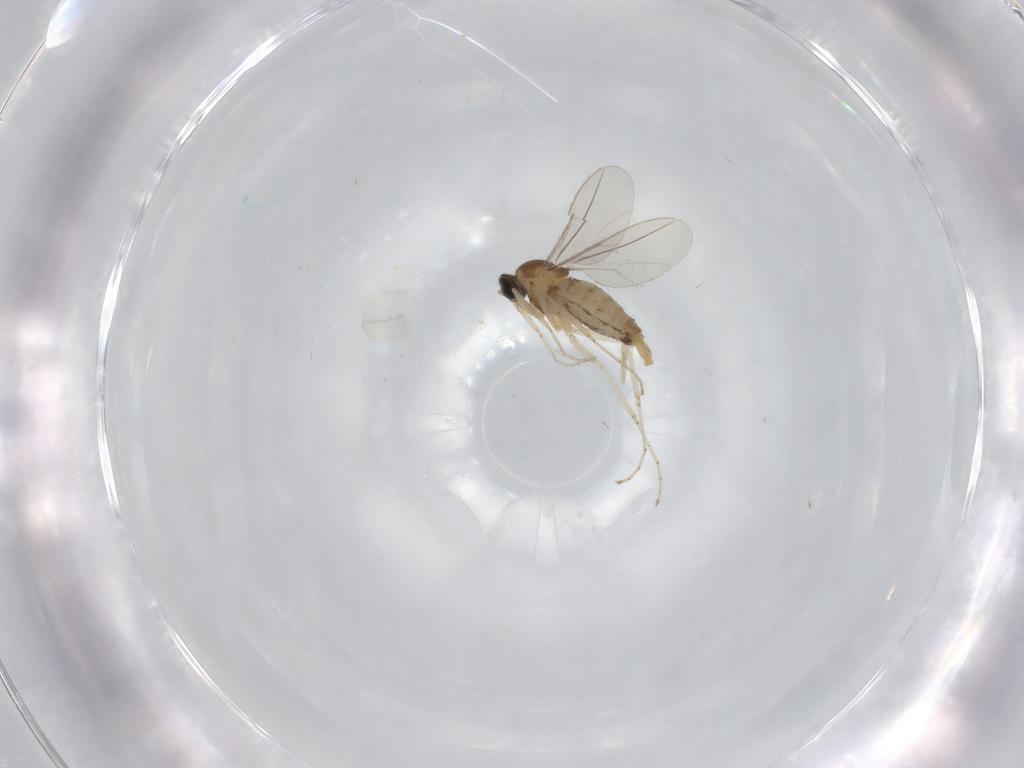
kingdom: Animalia
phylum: Arthropoda
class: Insecta
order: Diptera
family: Cecidomyiidae
